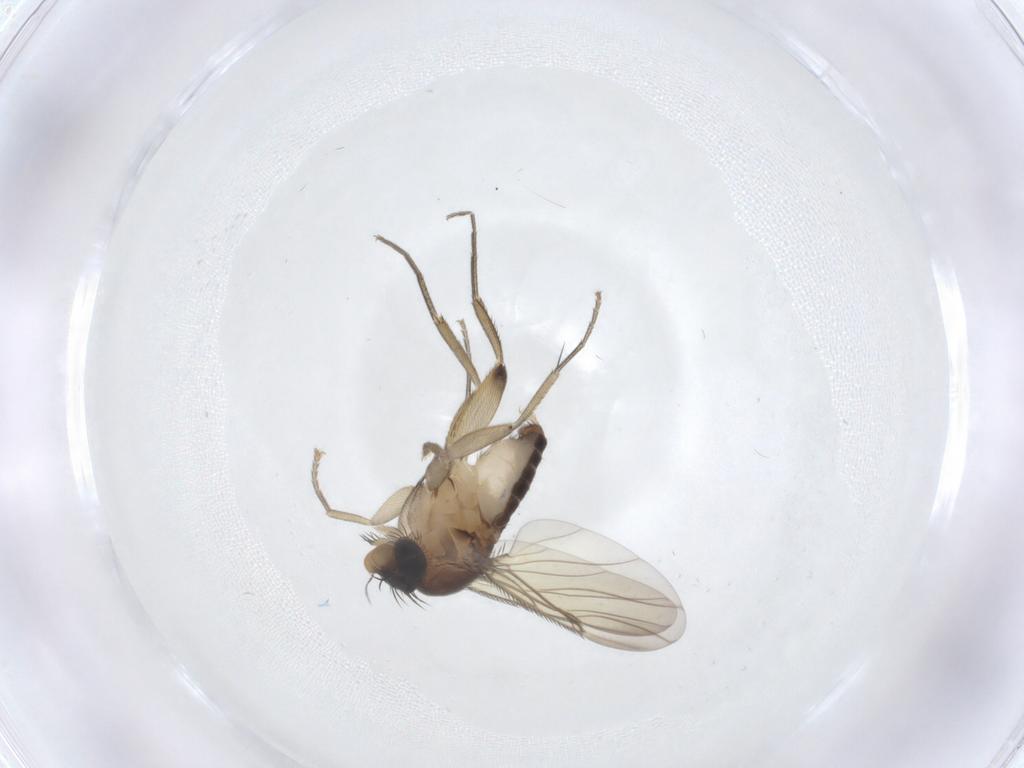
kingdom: Animalia
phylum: Arthropoda
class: Insecta
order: Diptera
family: Phoridae
